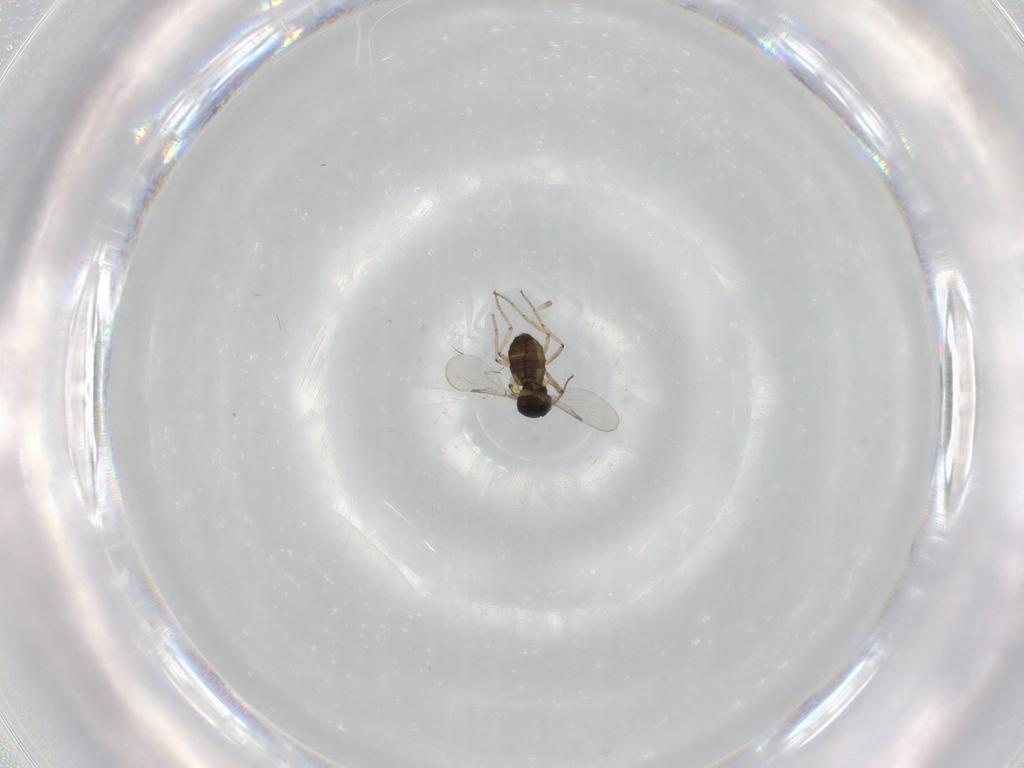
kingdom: Animalia
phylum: Arthropoda
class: Insecta
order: Diptera
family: Ceratopogonidae
